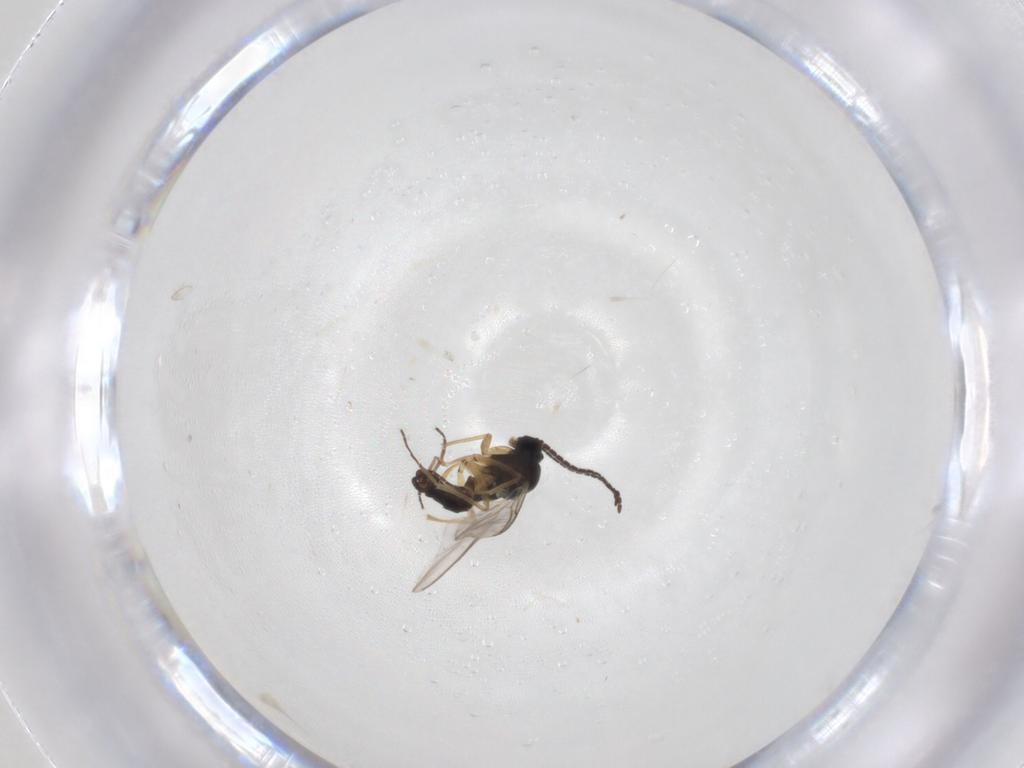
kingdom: Animalia
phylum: Arthropoda
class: Insecta
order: Diptera
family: Sciaridae
